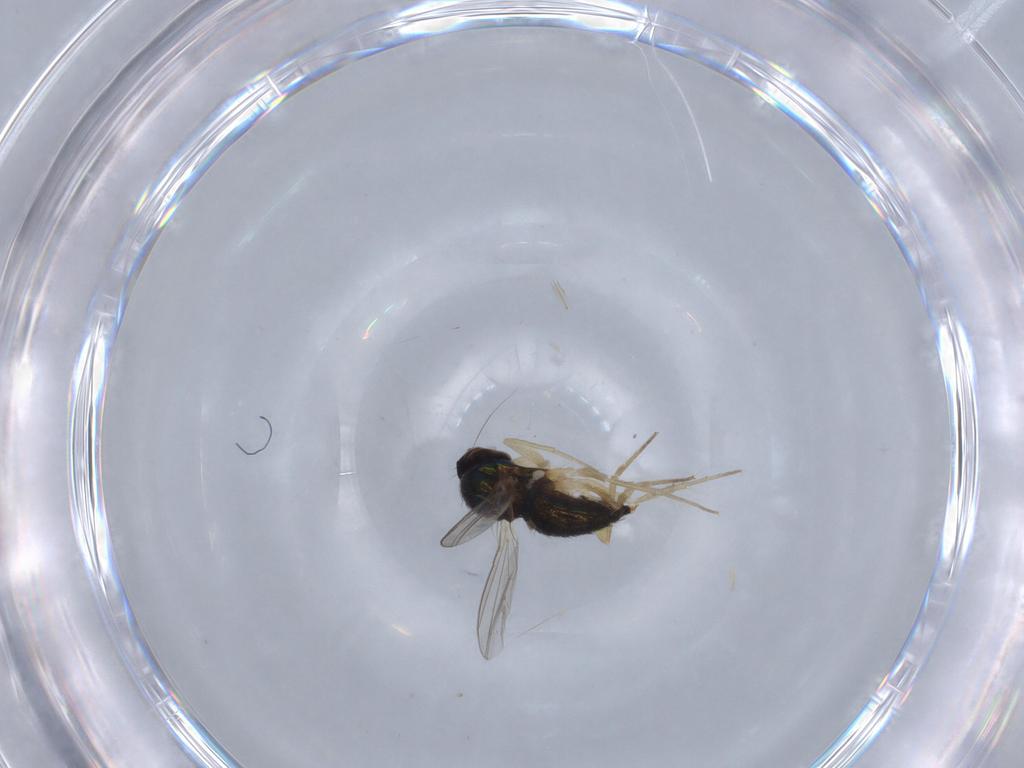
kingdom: Animalia
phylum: Arthropoda
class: Insecta
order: Diptera
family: Dolichopodidae
